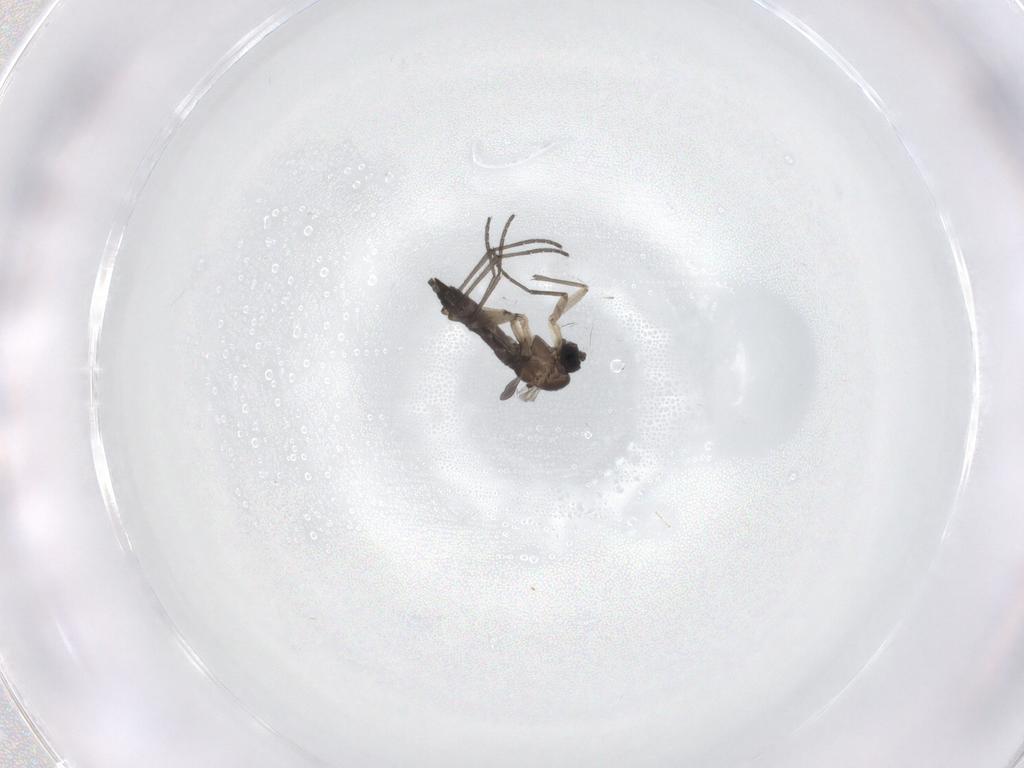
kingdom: Animalia
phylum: Arthropoda
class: Insecta
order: Diptera
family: Sciaridae
